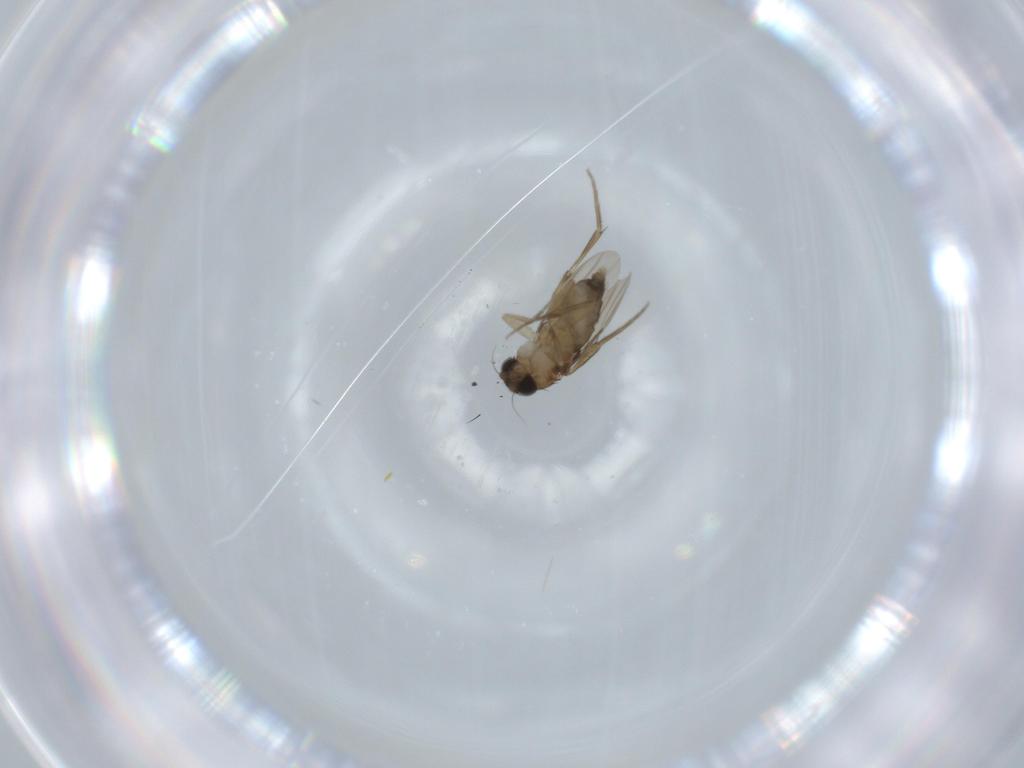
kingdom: Animalia
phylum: Arthropoda
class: Insecta
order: Diptera
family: Phoridae
